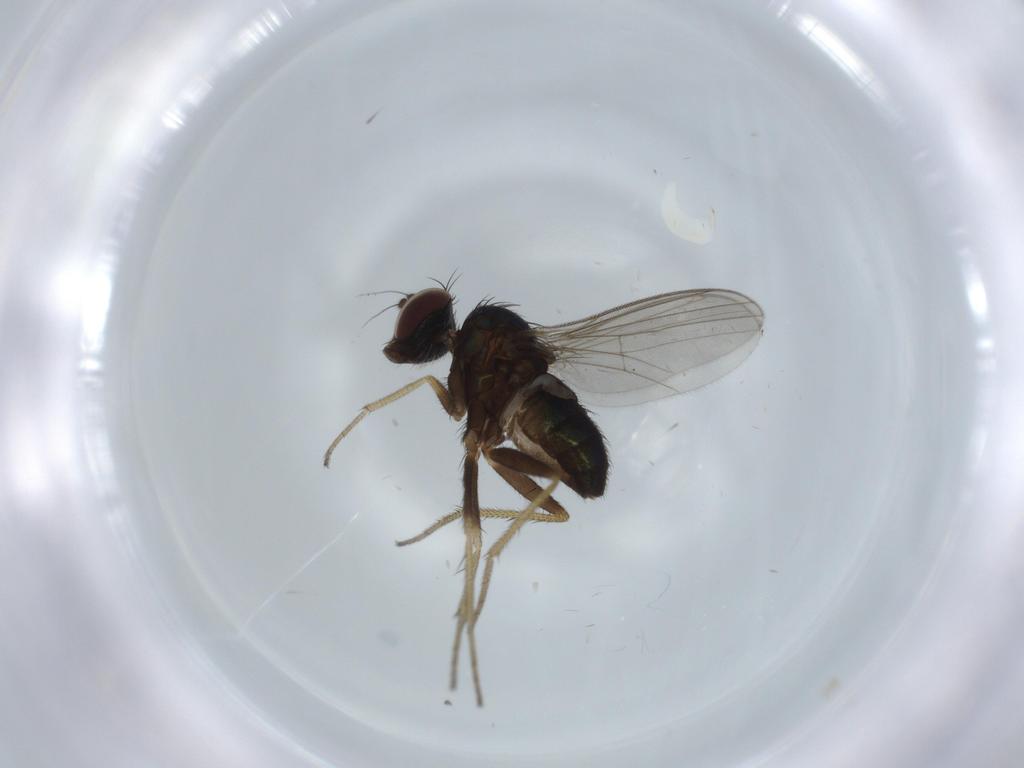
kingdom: Animalia
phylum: Arthropoda
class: Insecta
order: Diptera
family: Dolichopodidae
